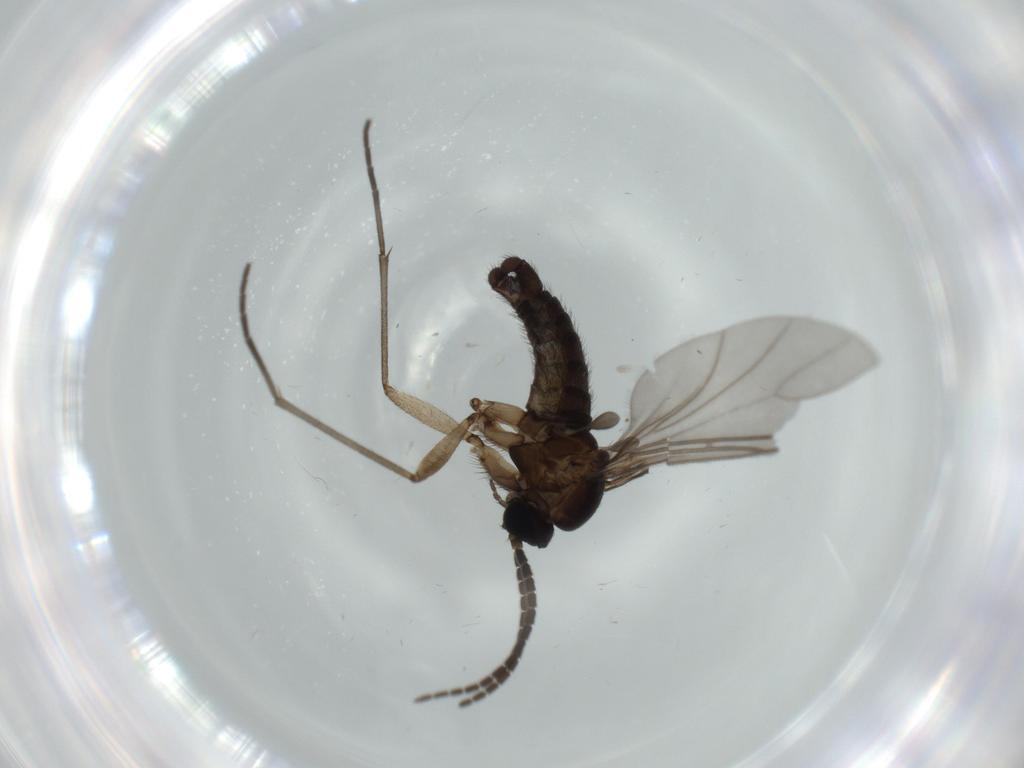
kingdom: Animalia
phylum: Arthropoda
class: Insecta
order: Diptera
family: Sciaridae
